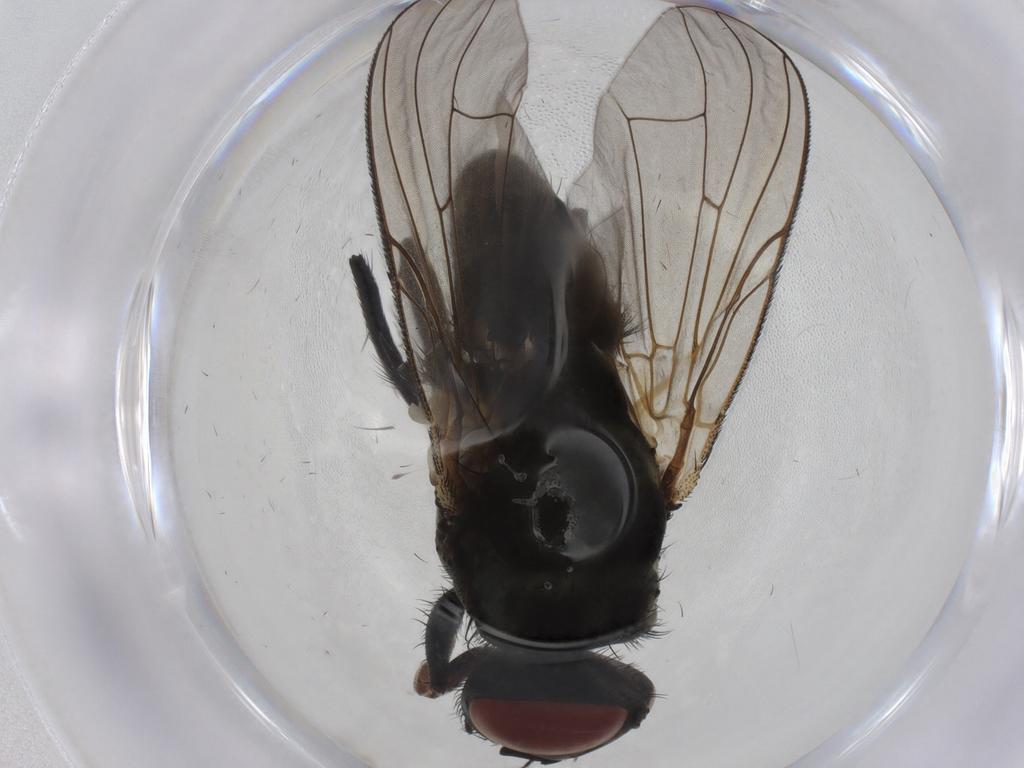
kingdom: Animalia
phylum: Arthropoda
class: Insecta
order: Diptera
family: Muscidae
